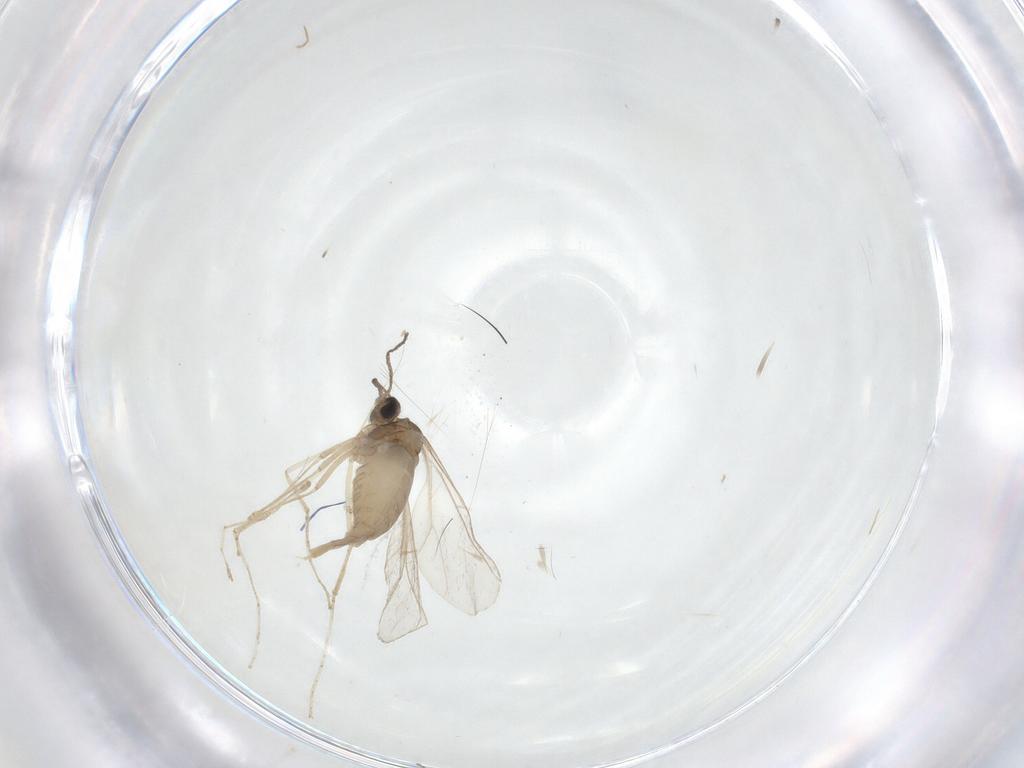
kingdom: Animalia
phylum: Arthropoda
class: Insecta
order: Diptera
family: Cecidomyiidae
